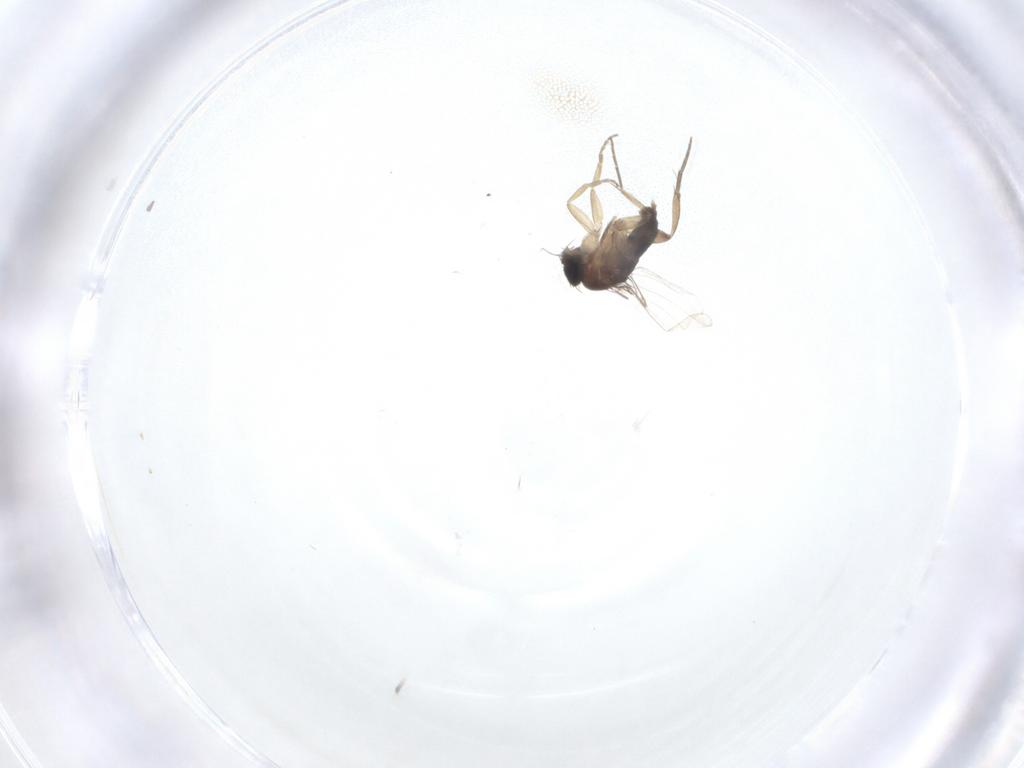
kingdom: Animalia
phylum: Arthropoda
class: Insecta
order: Diptera
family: Phoridae
